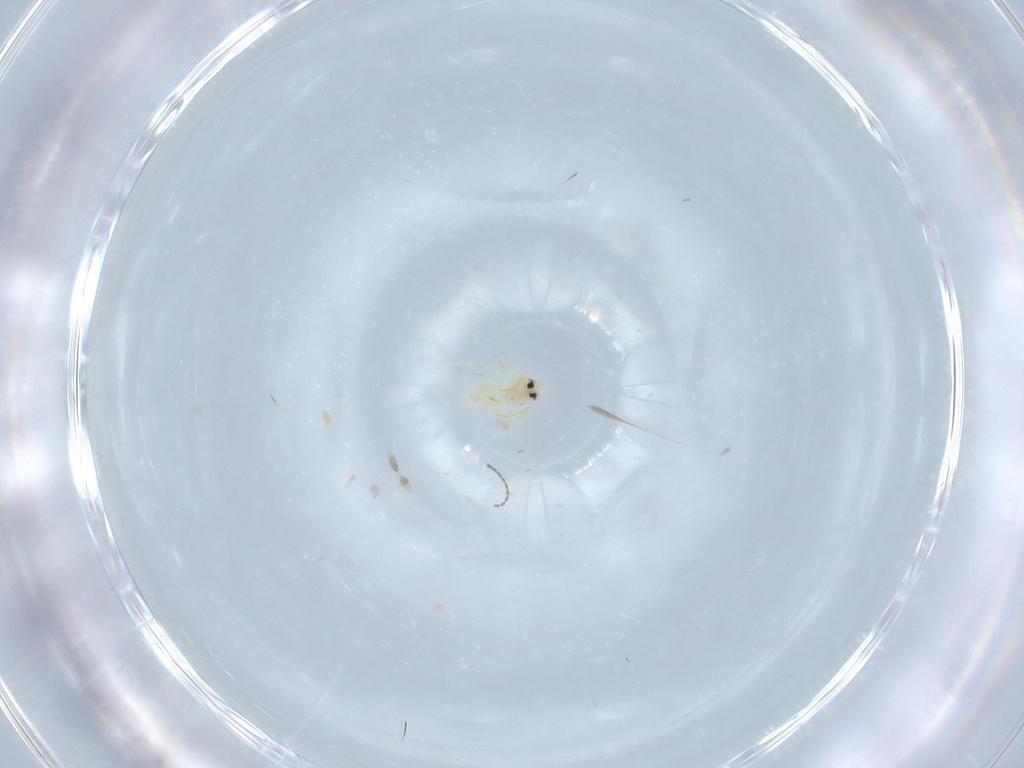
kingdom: Animalia
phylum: Arthropoda
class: Insecta
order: Hemiptera
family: Aleyrodidae
